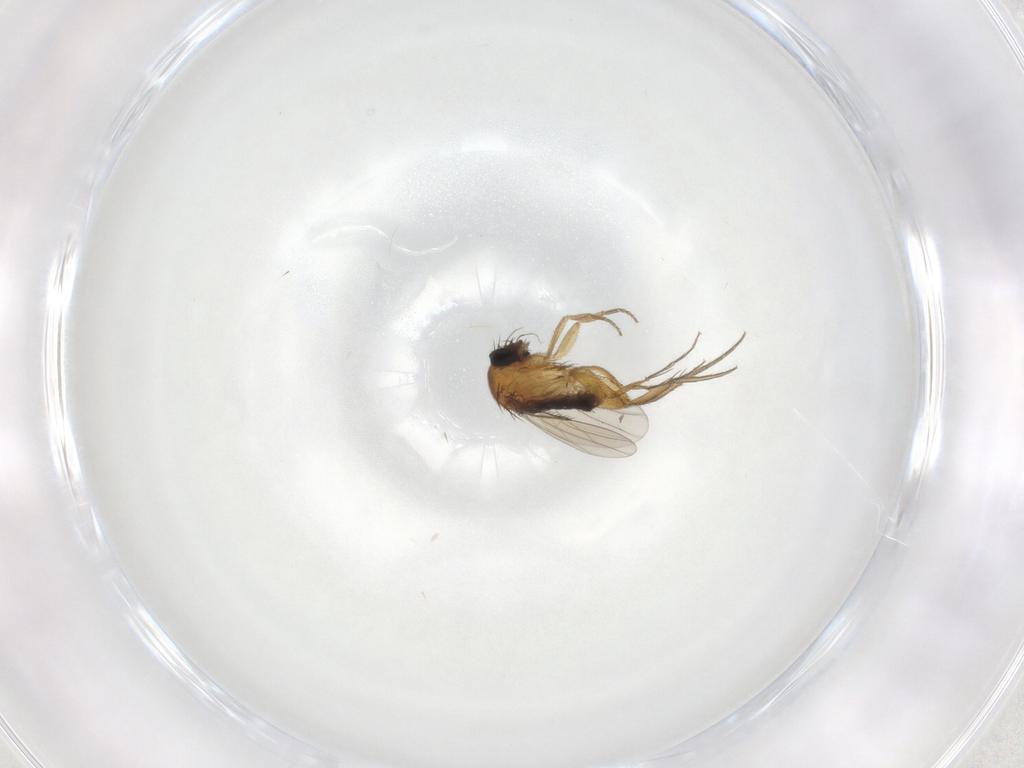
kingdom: Animalia
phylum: Arthropoda
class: Insecta
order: Diptera
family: Phoridae
